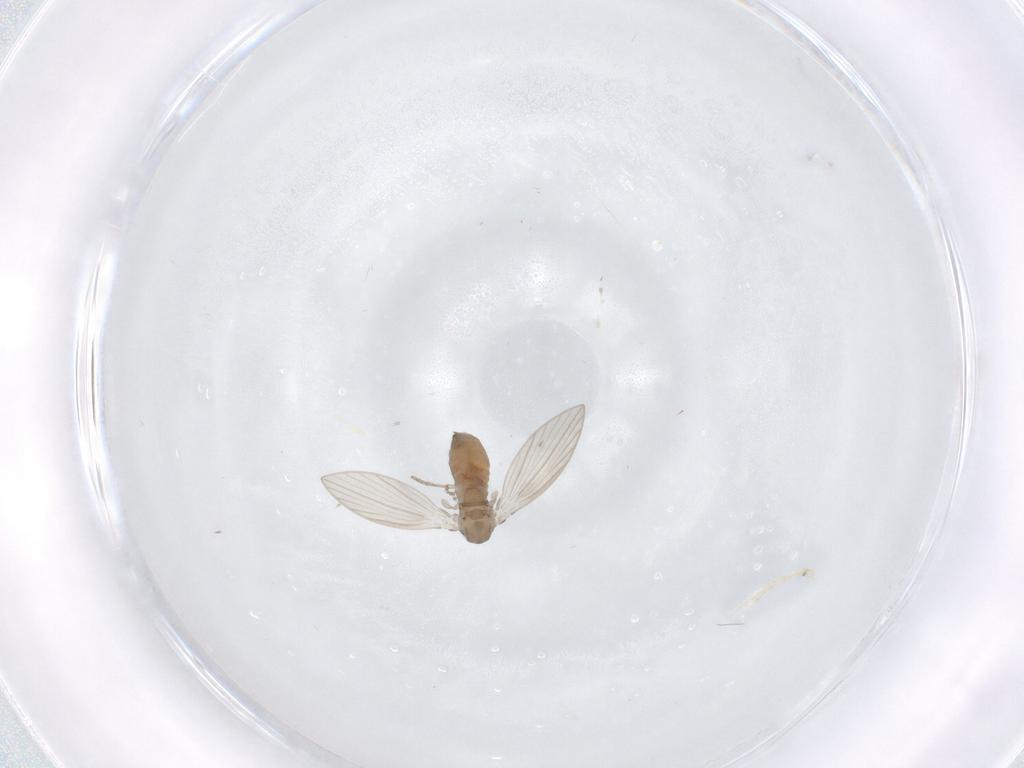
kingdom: Animalia
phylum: Arthropoda
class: Insecta
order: Diptera
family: Psychodidae
